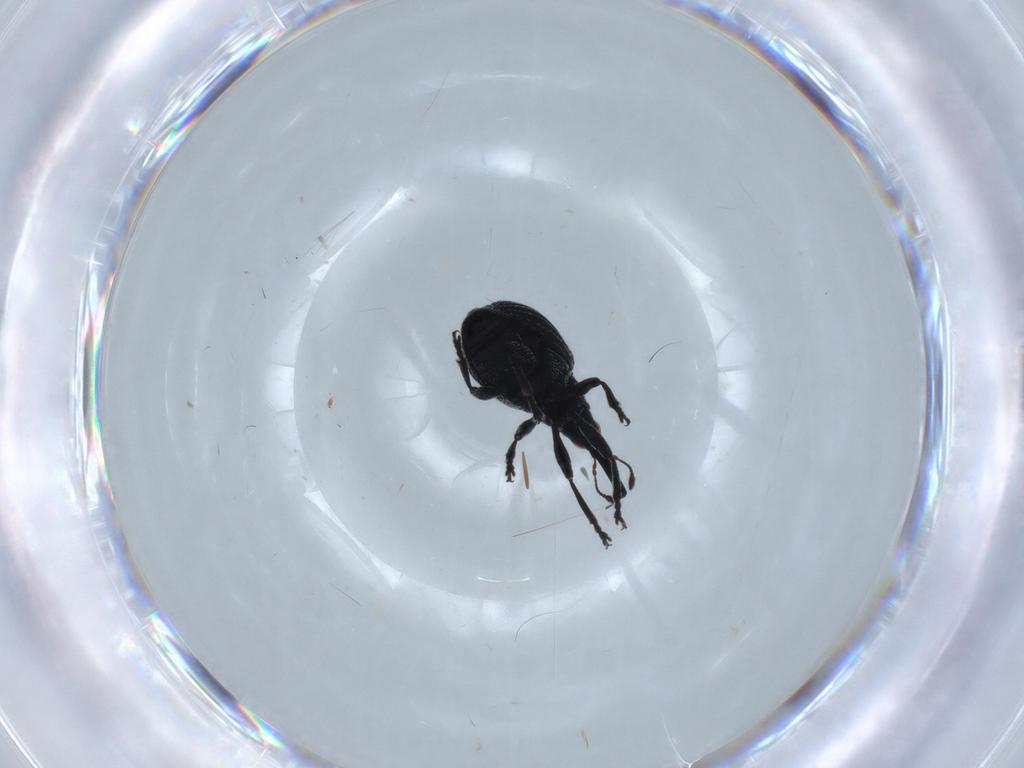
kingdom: Animalia
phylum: Arthropoda
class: Insecta
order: Coleoptera
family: Brentidae
